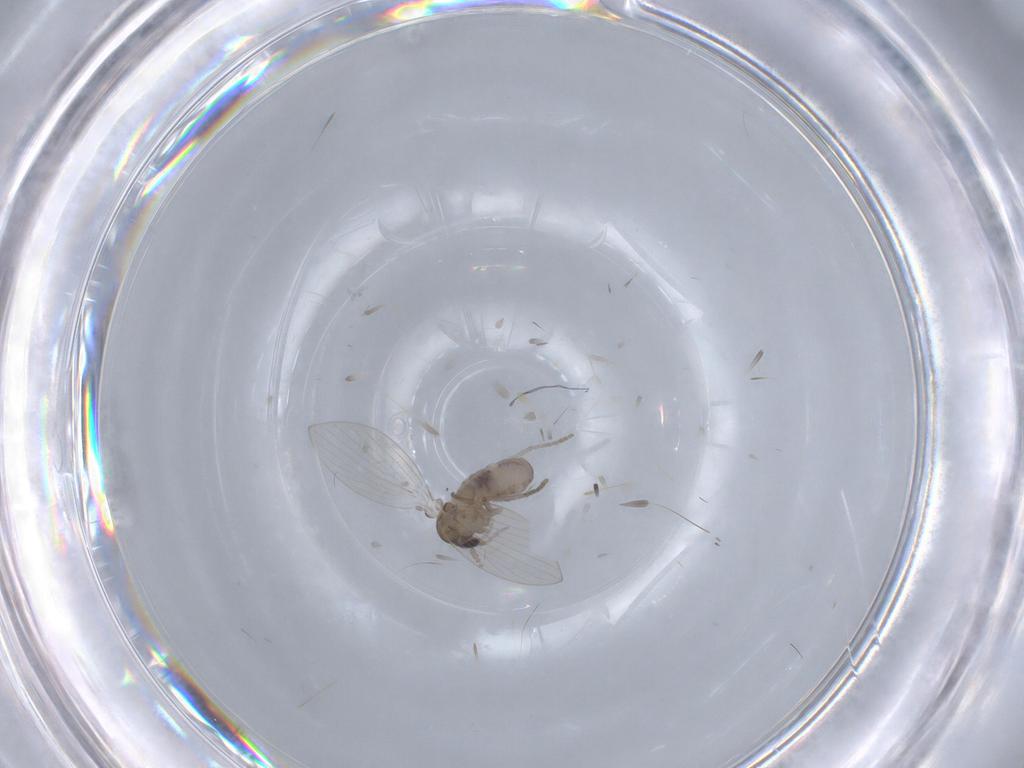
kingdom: Animalia
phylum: Arthropoda
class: Insecta
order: Diptera
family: Psychodidae
